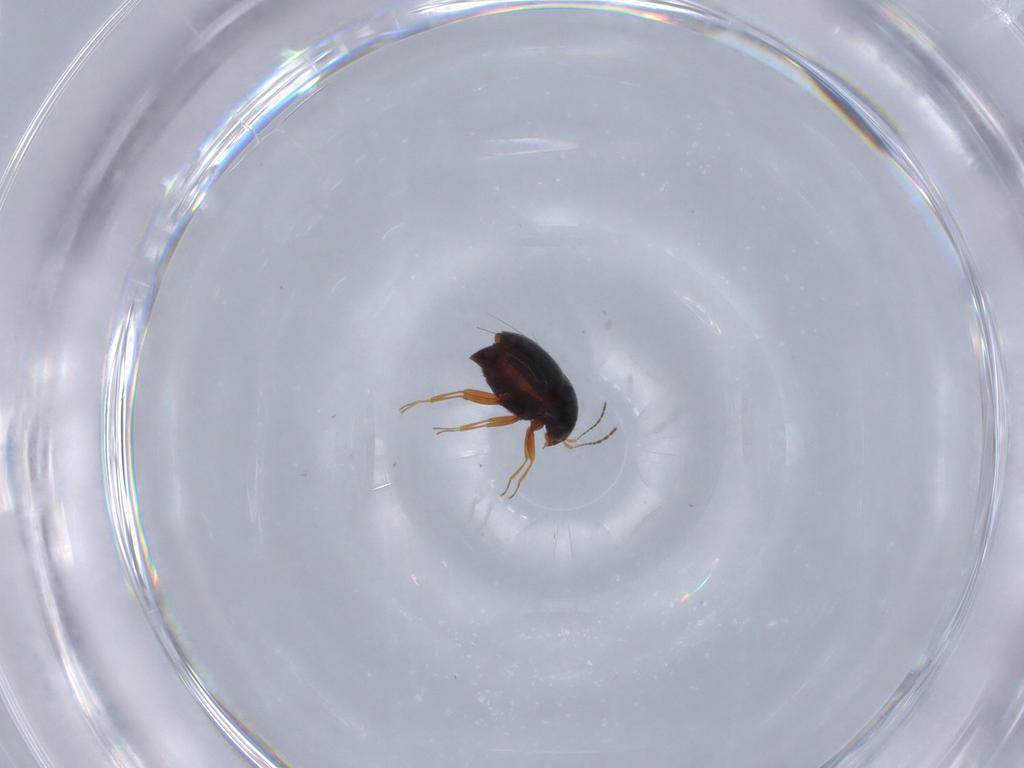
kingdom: Animalia
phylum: Arthropoda
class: Insecta
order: Coleoptera
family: Staphylinidae
